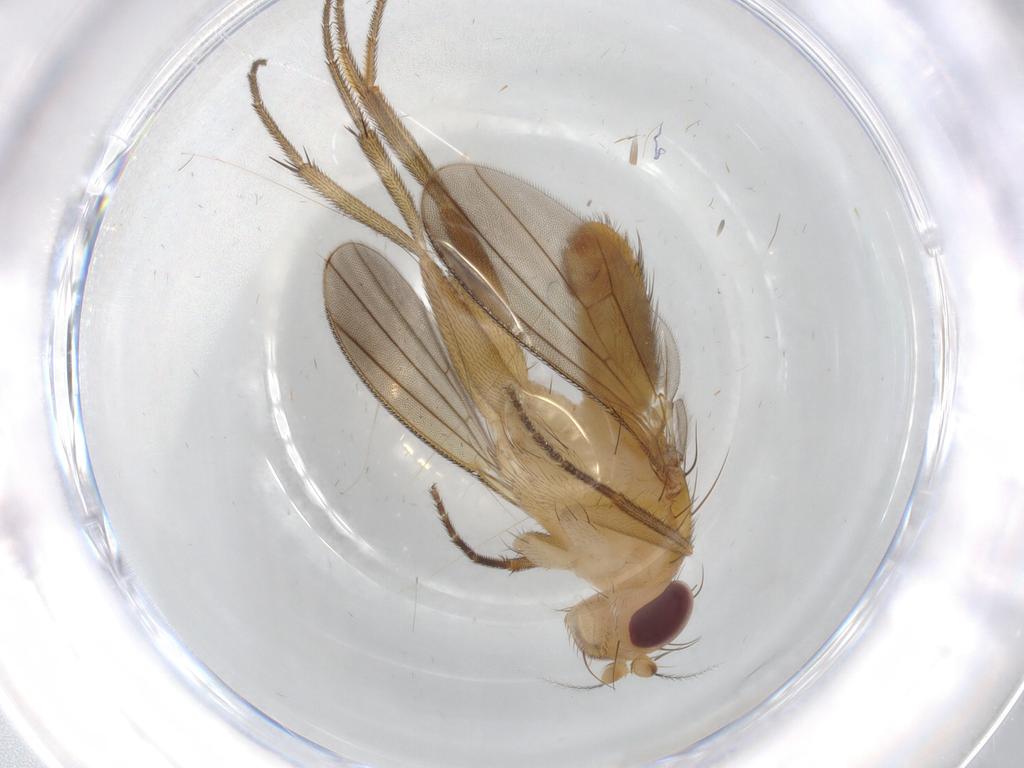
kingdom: Animalia
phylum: Arthropoda
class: Insecta
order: Diptera
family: Clusiidae
